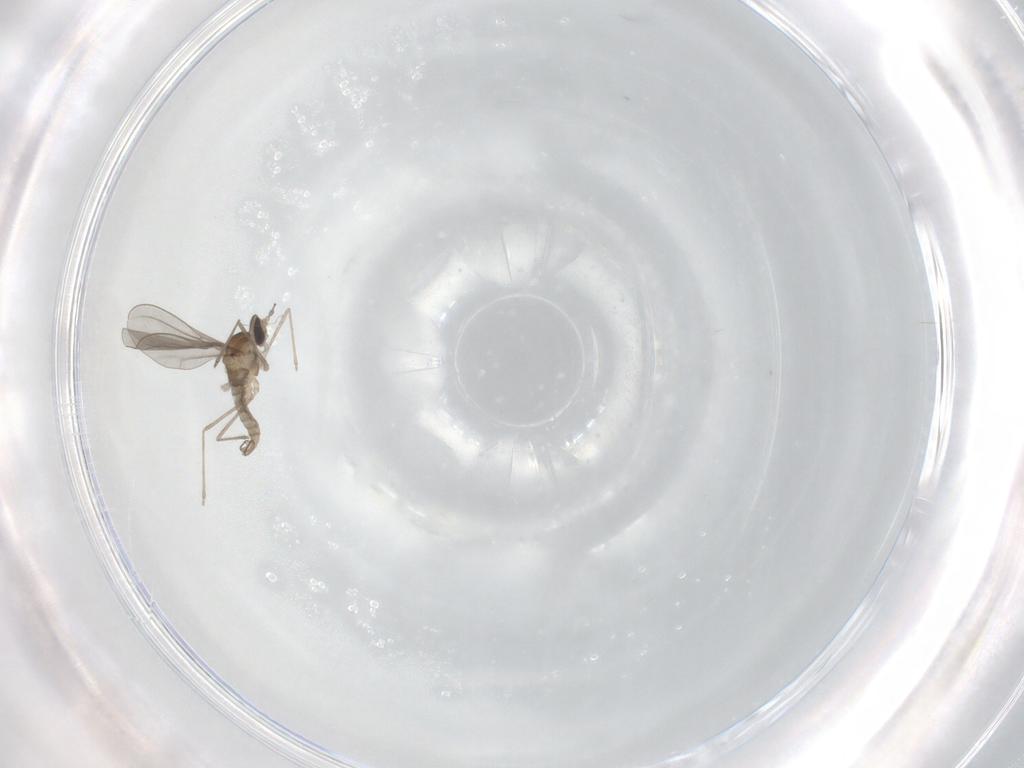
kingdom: Animalia
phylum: Arthropoda
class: Insecta
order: Diptera
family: Cecidomyiidae
